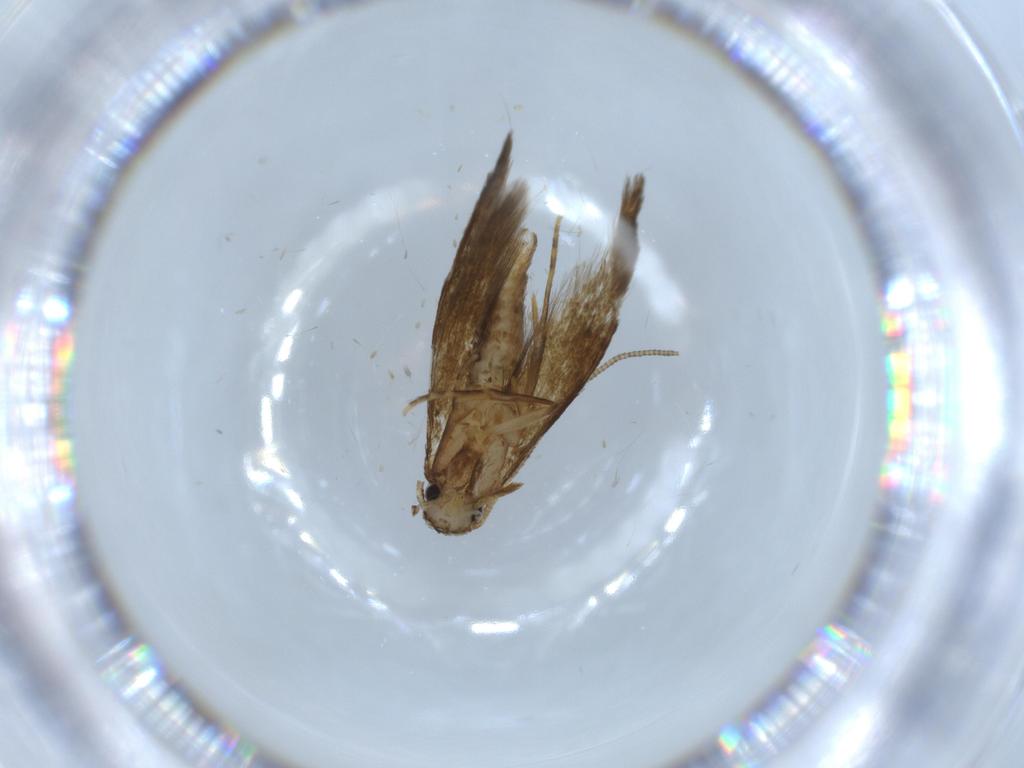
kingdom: Animalia
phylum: Arthropoda
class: Insecta
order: Lepidoptera
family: Tineidae
